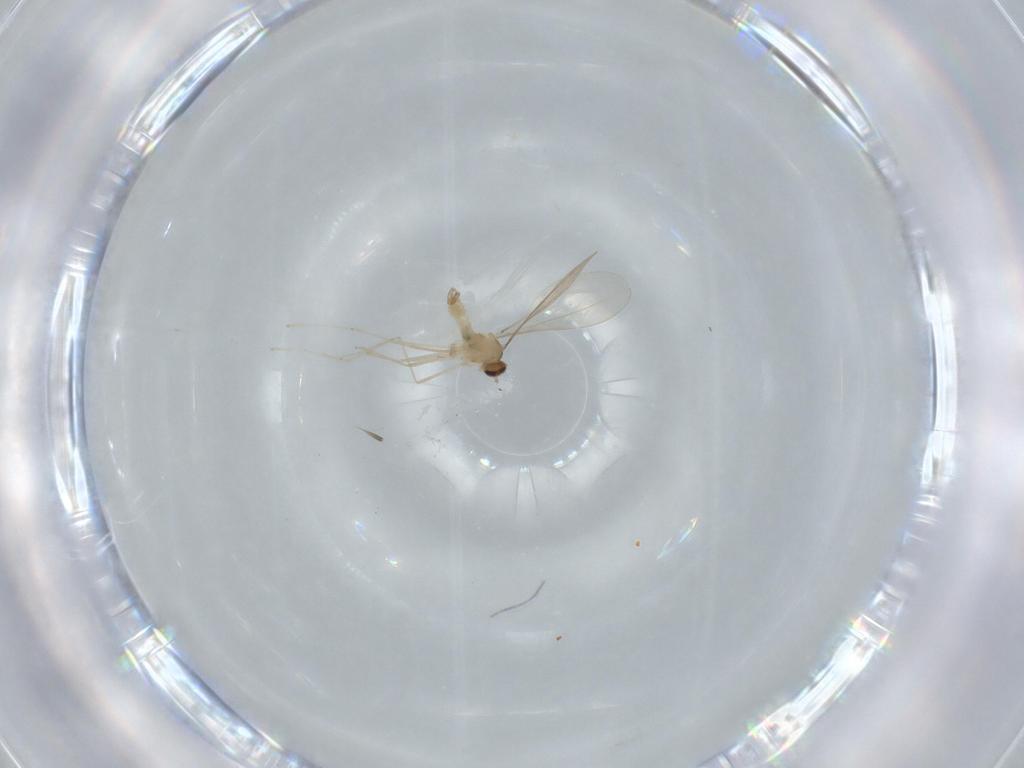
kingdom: Animalia
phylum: Arthropoda
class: Insecta
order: Diptera
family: Cecidomyiidae
